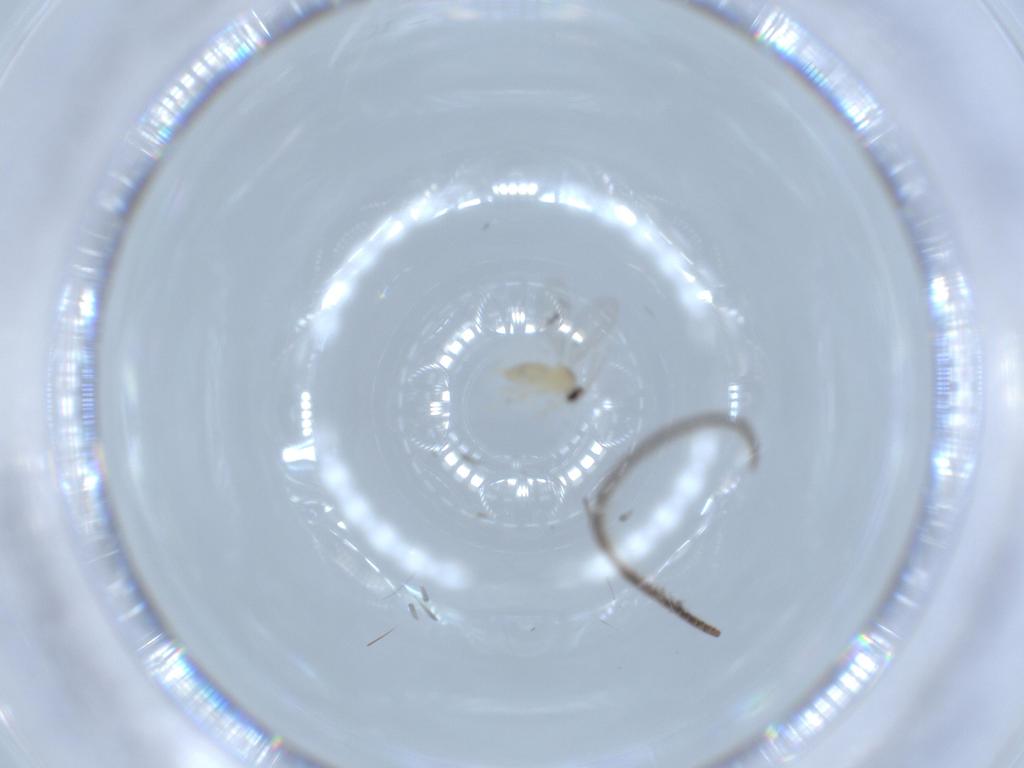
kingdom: Animalia
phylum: Arthropoda
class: Insecta
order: Diptera
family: Cecidomyiidae
